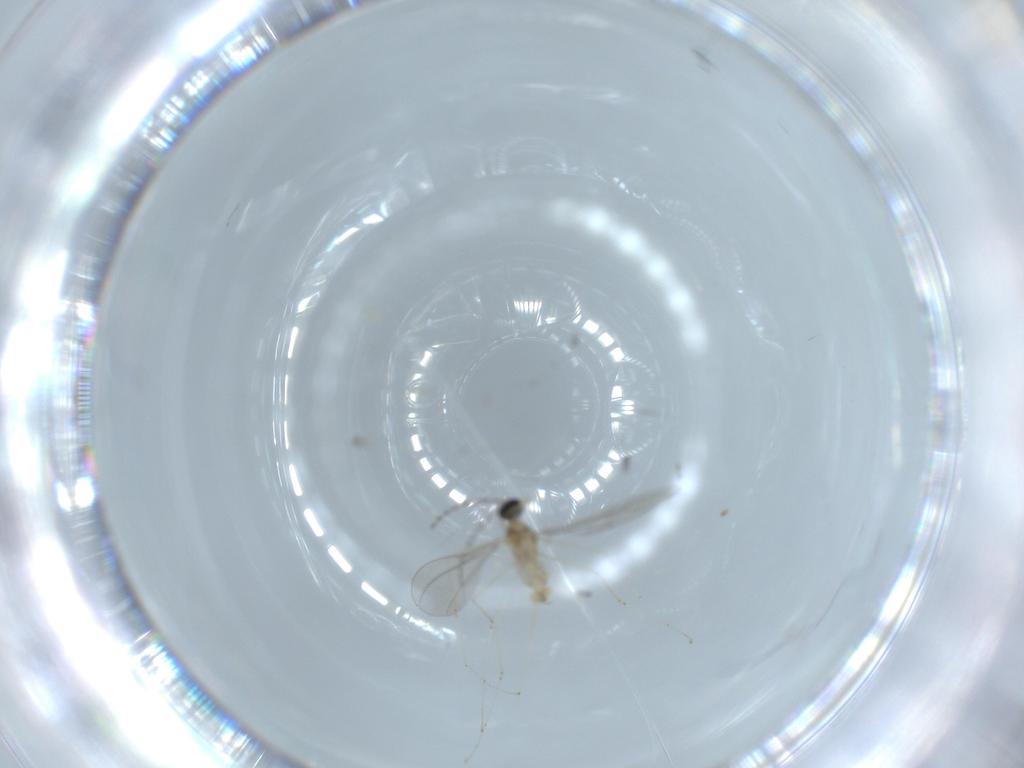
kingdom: Animalia
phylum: Arthropoda
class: Insecta
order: Diptera
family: Cecidomyiidae
